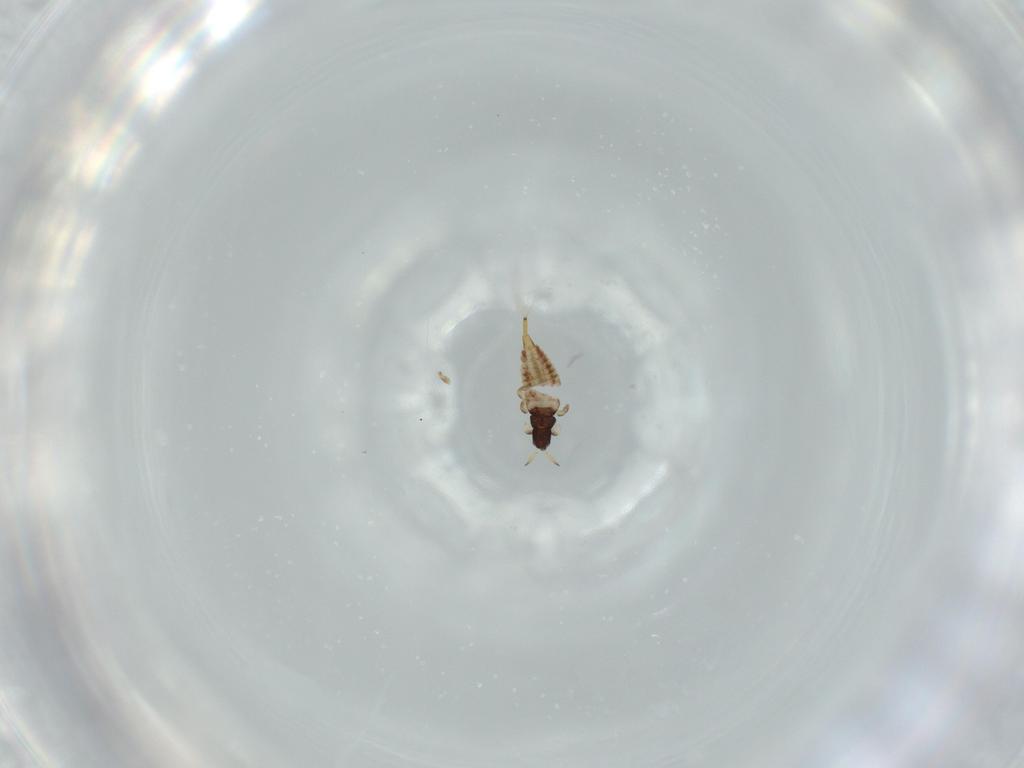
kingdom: Animalia
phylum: Arthropoda
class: Insecta
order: Thysanoptera
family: Phlaeothripidae
